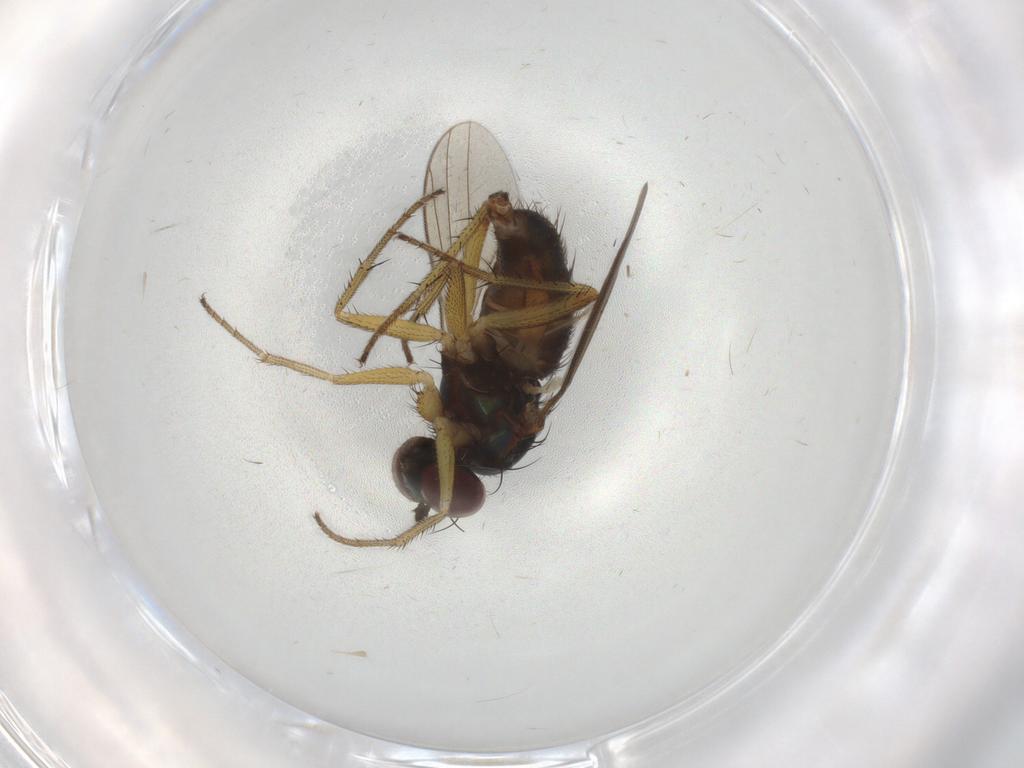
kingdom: Animalia
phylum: Arthropoda
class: Insecta
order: Diptera
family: Dolichopodidae
